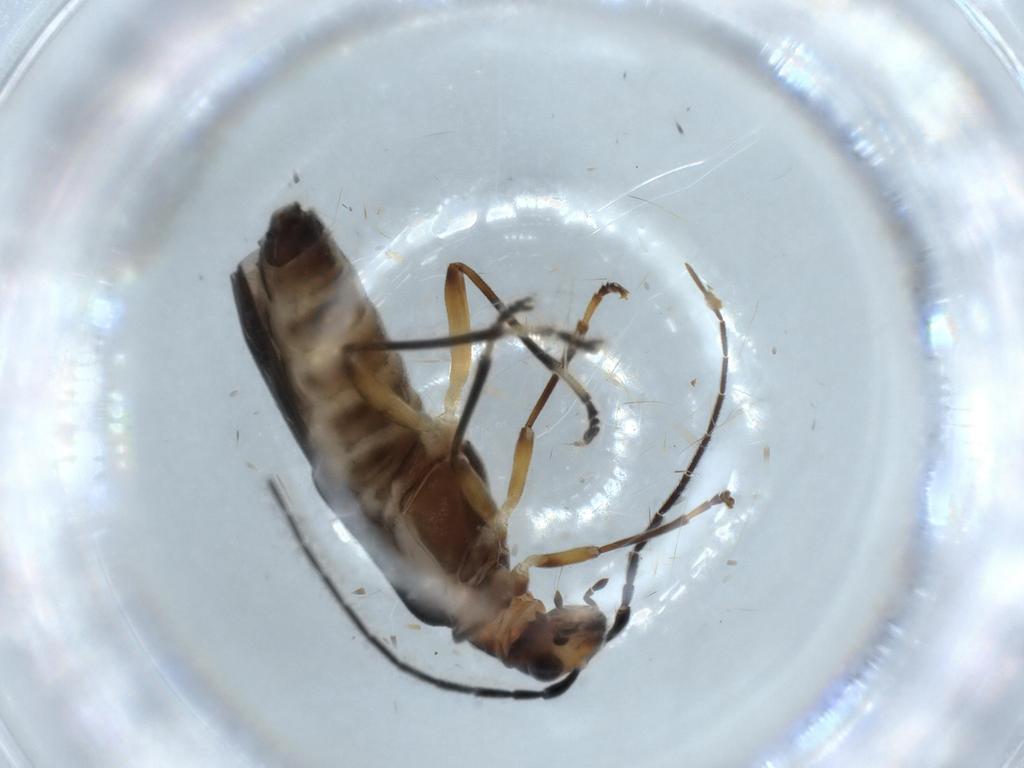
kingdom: Animalia
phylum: Arthropoda
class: Insecta
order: Coleoptera
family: Cantharidae
